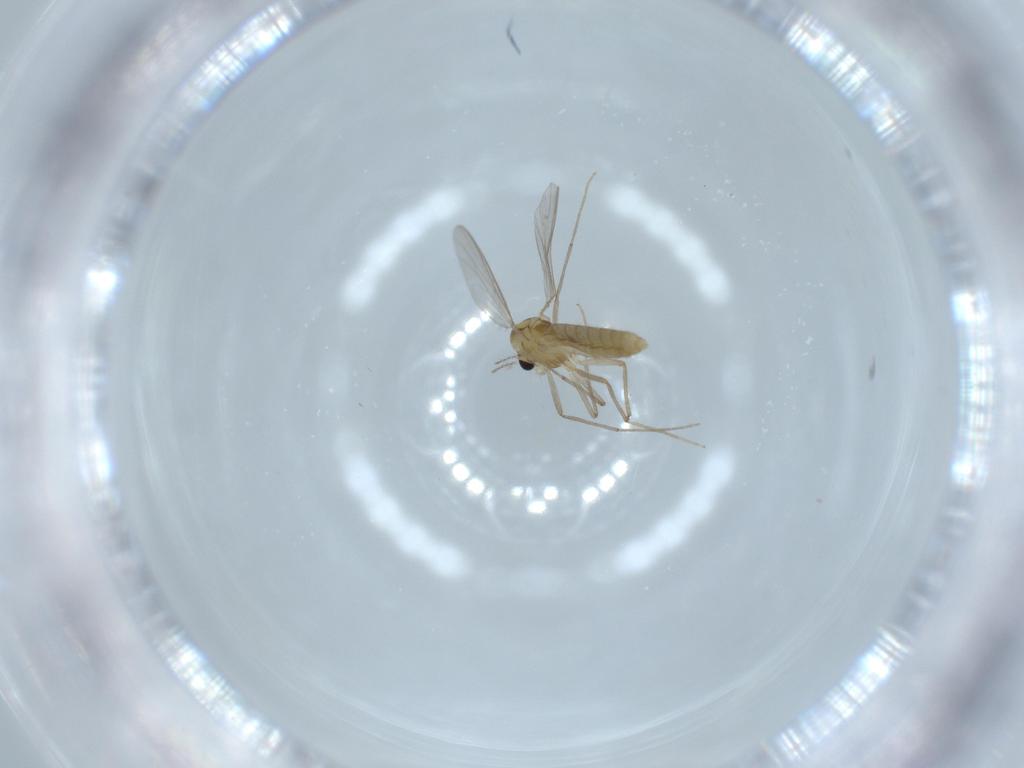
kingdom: Animalia
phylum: Arthropoda
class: Insecta
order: Diptera
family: Chironomidae
